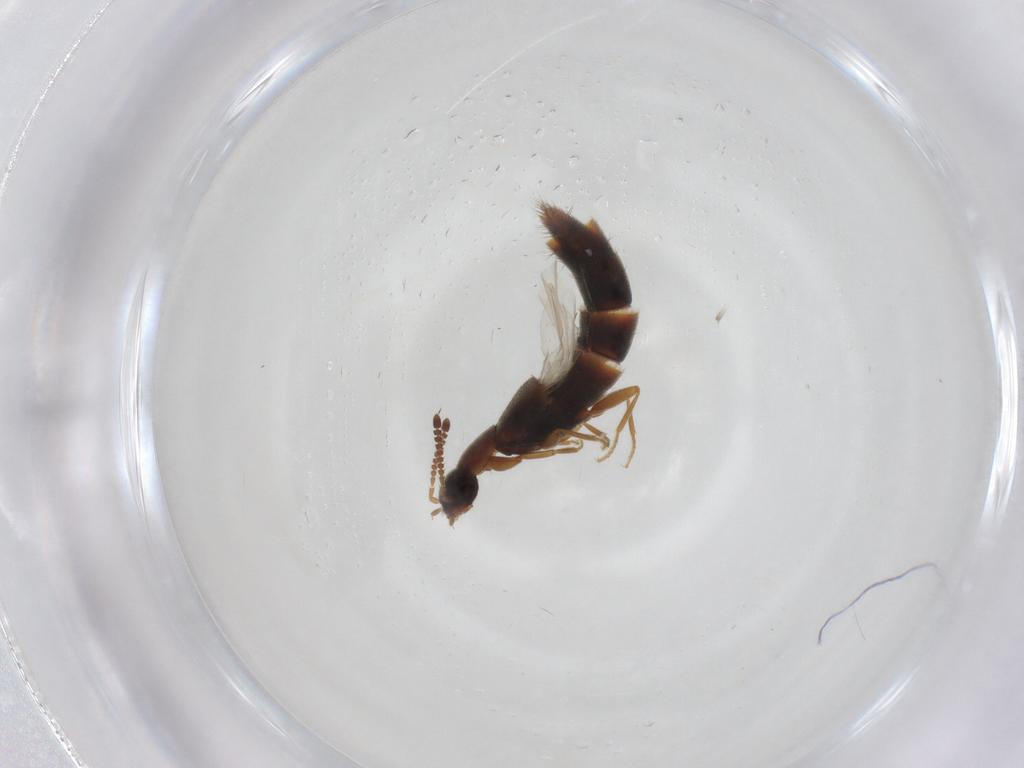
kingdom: Animalia
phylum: Arthropoda
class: Insecta
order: Coleoptera
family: Staphylinidae
